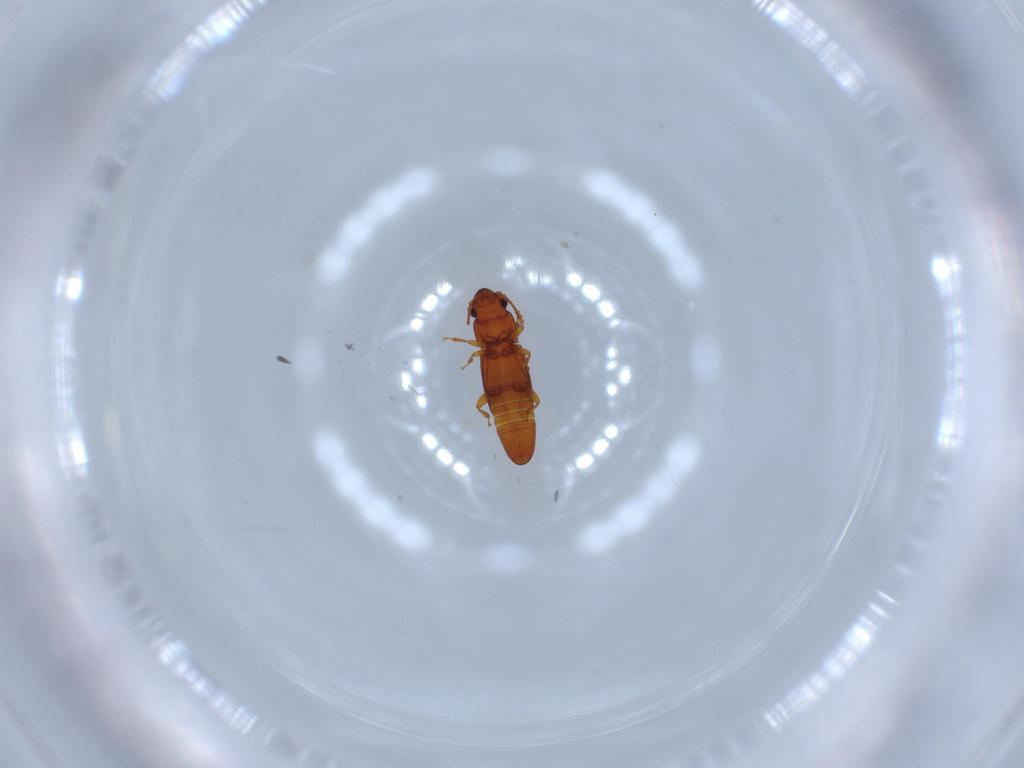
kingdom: Animalia
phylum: Arthropoda
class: Insecta
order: Coleoptera
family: Smicripidae
